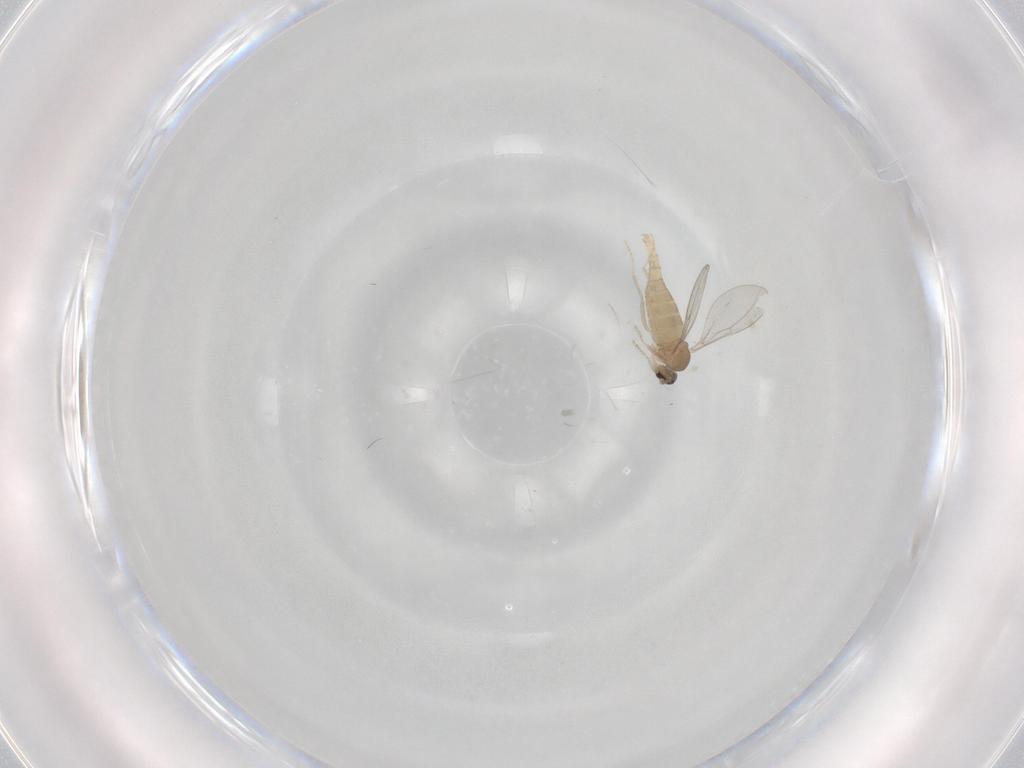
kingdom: Animalia
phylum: Arthropoda
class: Insecta
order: Diptera
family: Cecidomyiidae
